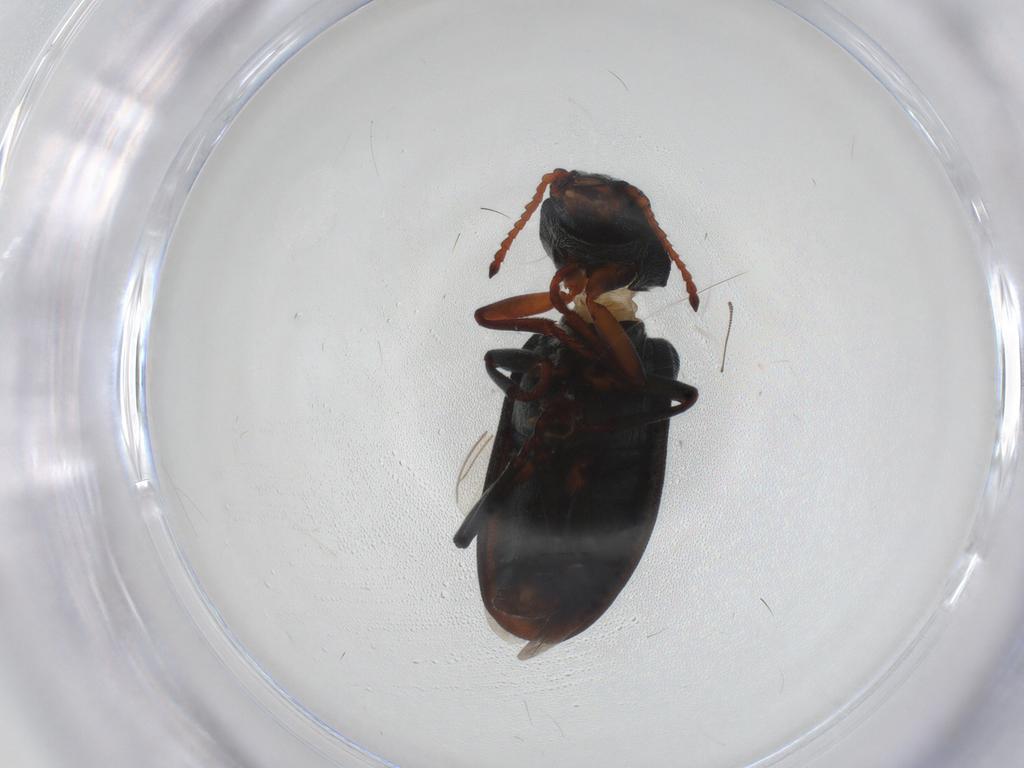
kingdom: Animalia
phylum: Arthropoda
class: Insecta
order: Coleoptera
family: Melyridae
